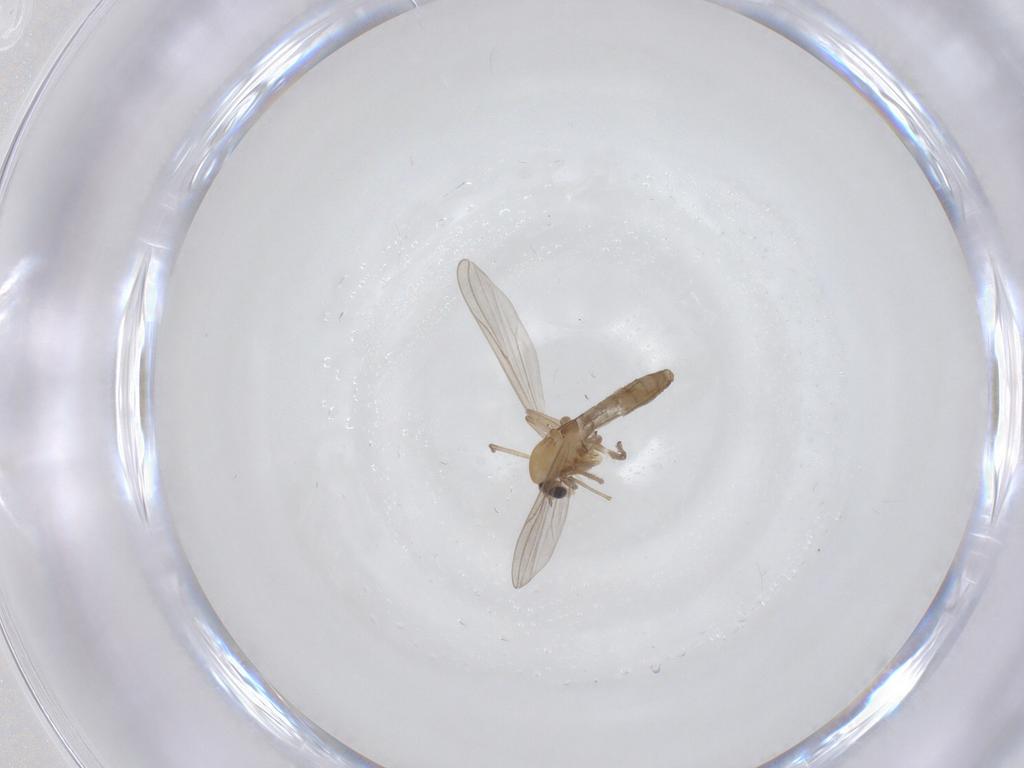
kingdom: Animalia
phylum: Arthropoda
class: Insecta
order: Diptera
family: Chironomidae
